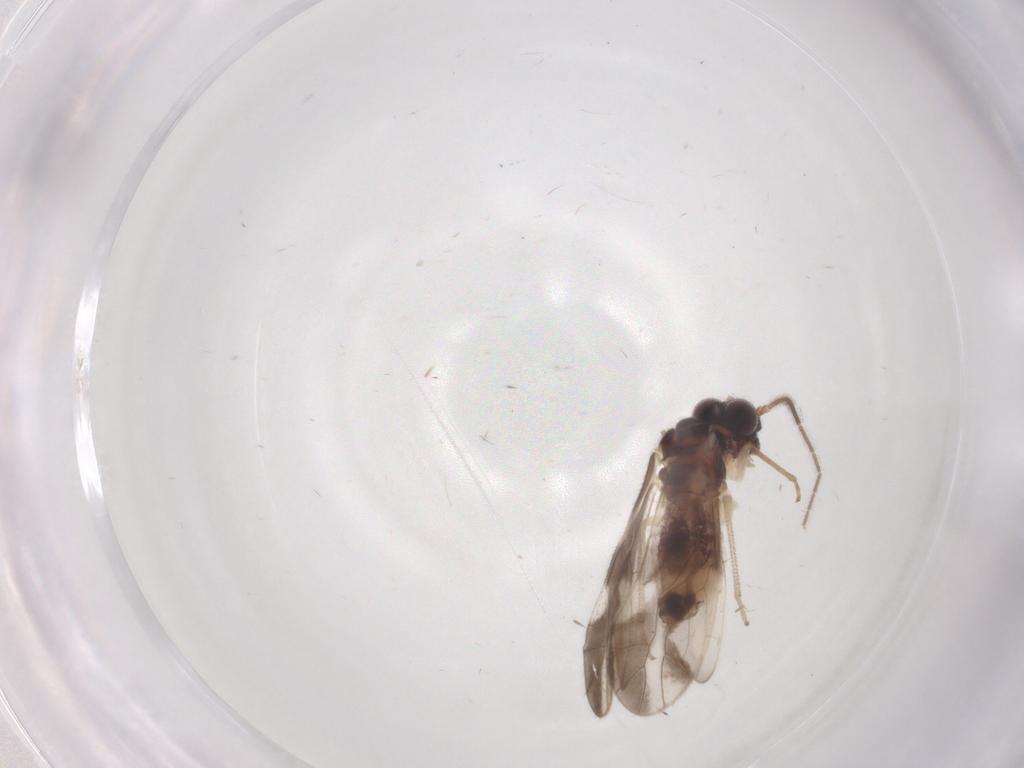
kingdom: Animalia
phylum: Arthropoda
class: Insecta
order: Psocodea
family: Caeciliusidae
